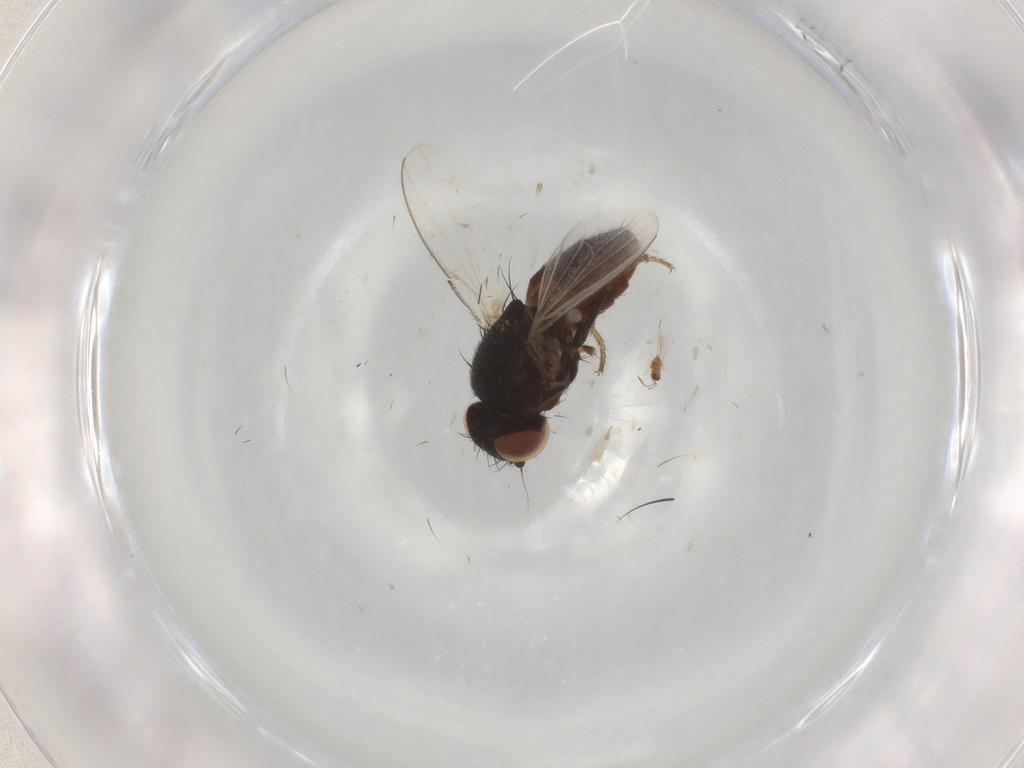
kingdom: Animalia
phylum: Arthropoda
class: Insecta
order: Diptera
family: Milichiidae
